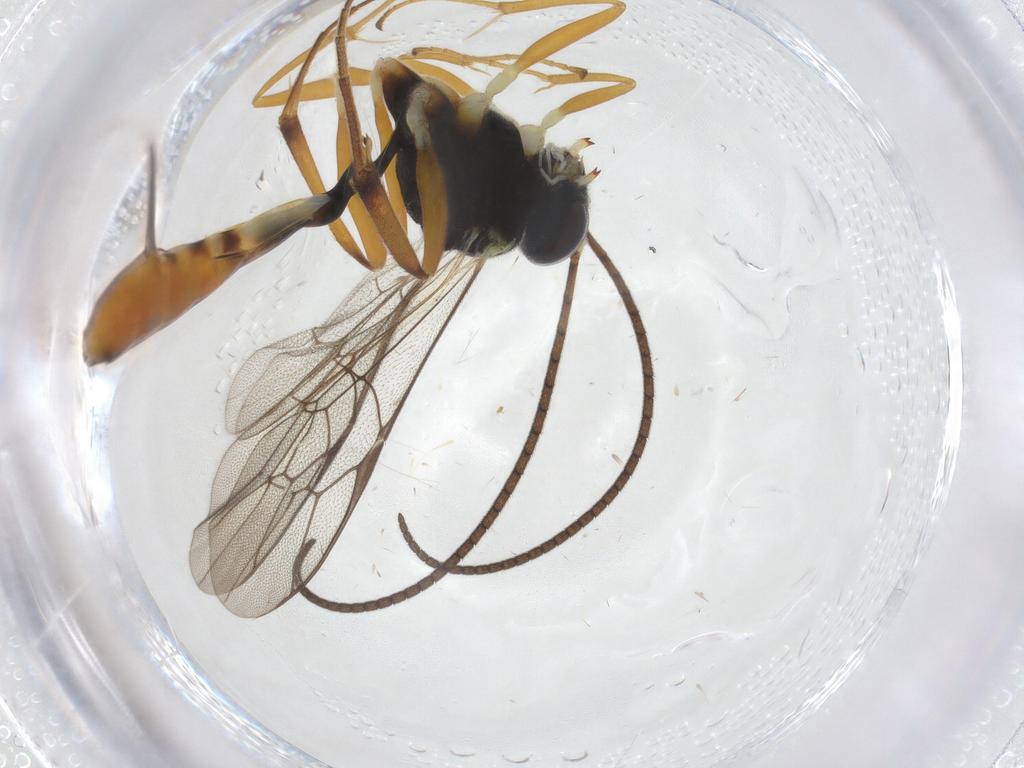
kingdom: Animalia
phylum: Arthropoda
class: Insecta
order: Hymenoptera
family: Ichneumonidae
